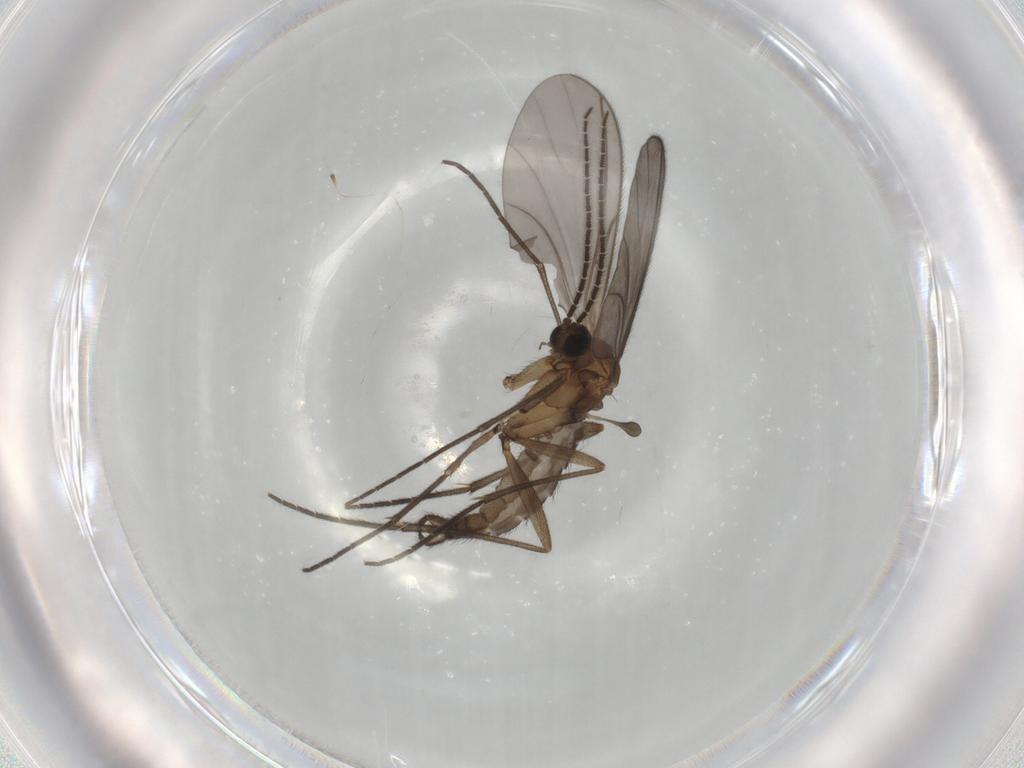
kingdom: Animalia
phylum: Arthropoda
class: Insecta
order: Diptera
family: Sciaridae
